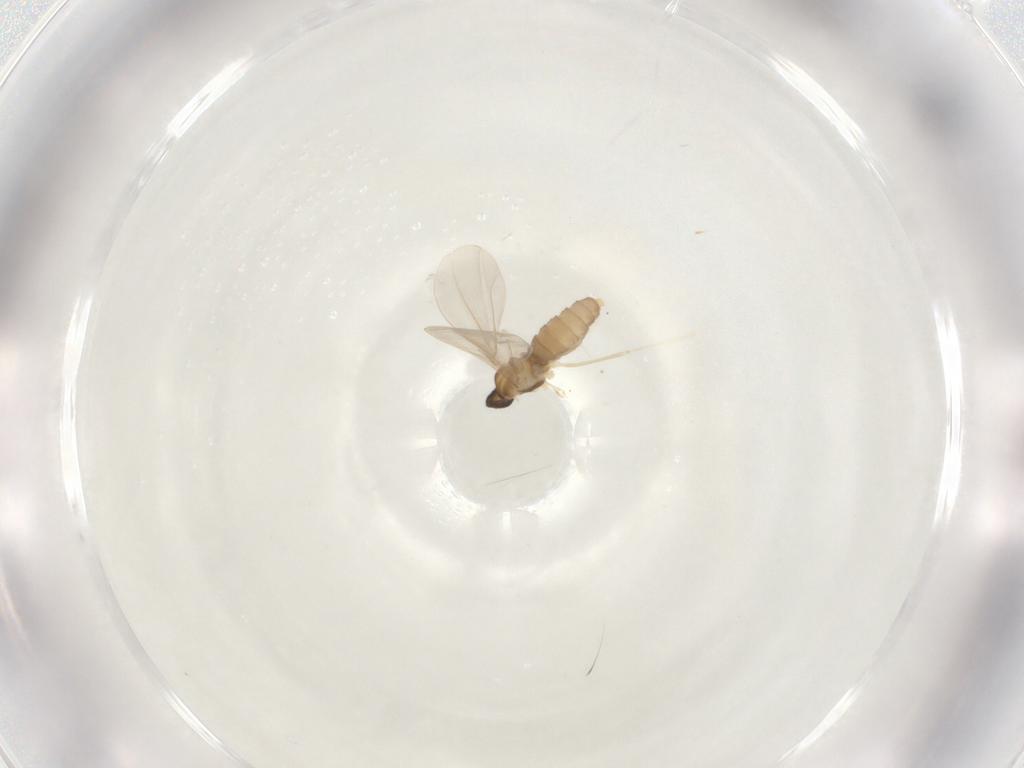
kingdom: Animalia
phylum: Arthropoda
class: Insecta
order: Diptera
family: Cecidomyiidae
